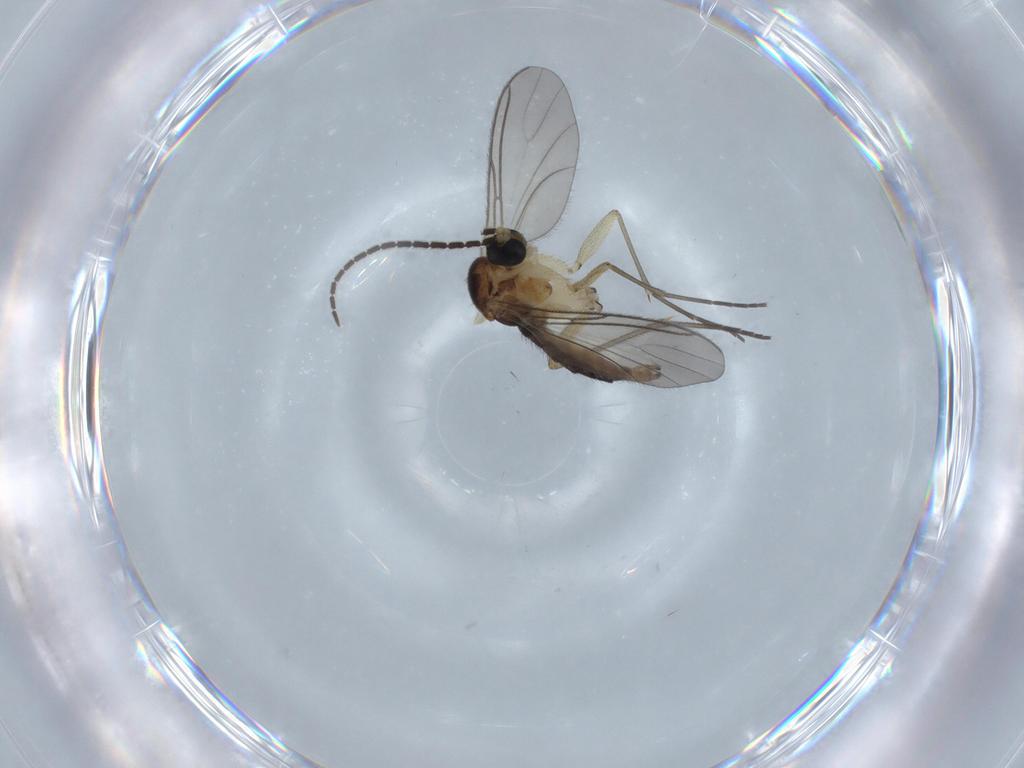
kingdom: Animalia
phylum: Arthropoda
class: Insecta
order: Diptera
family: Sciaridae
